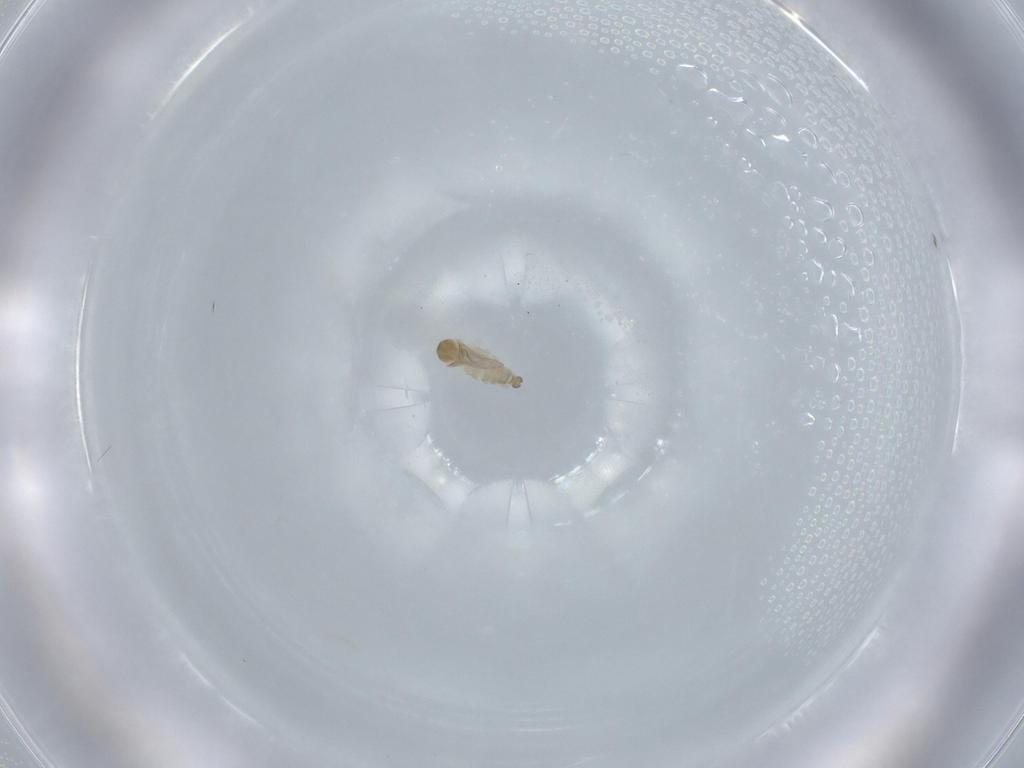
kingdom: Animalia
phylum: Arthropoda
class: Insecta
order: Diptera
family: Cecidomyiidae
